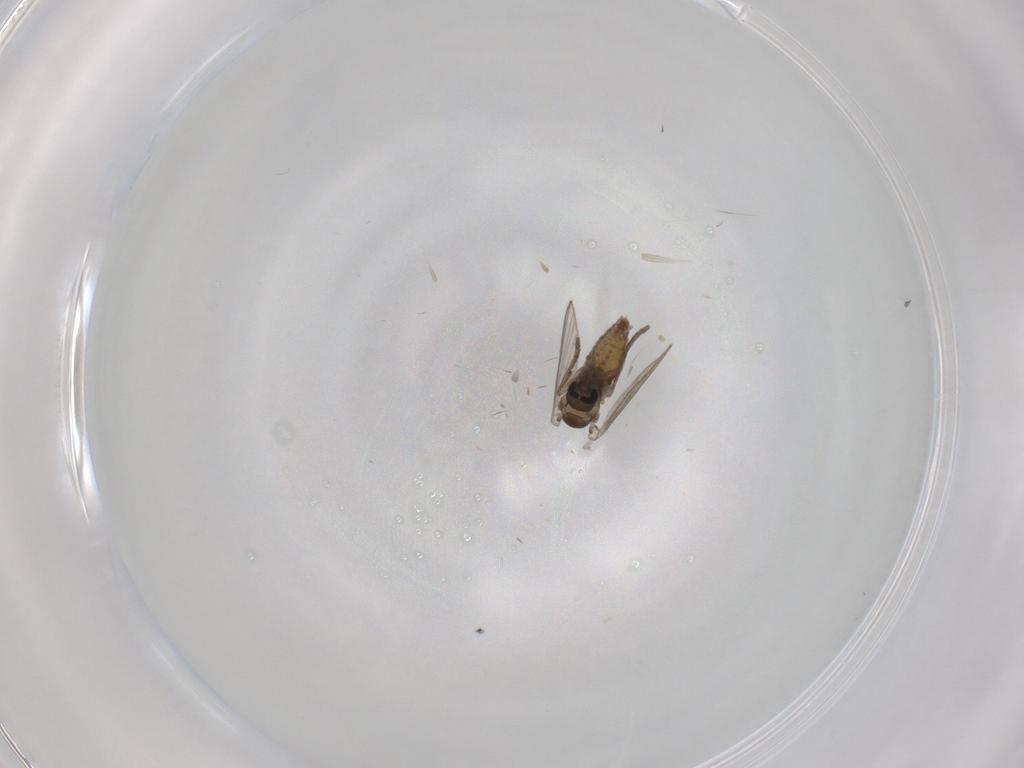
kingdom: Animalia
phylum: Arthropoda
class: Insecta
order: Diptera
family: Psychodidae
